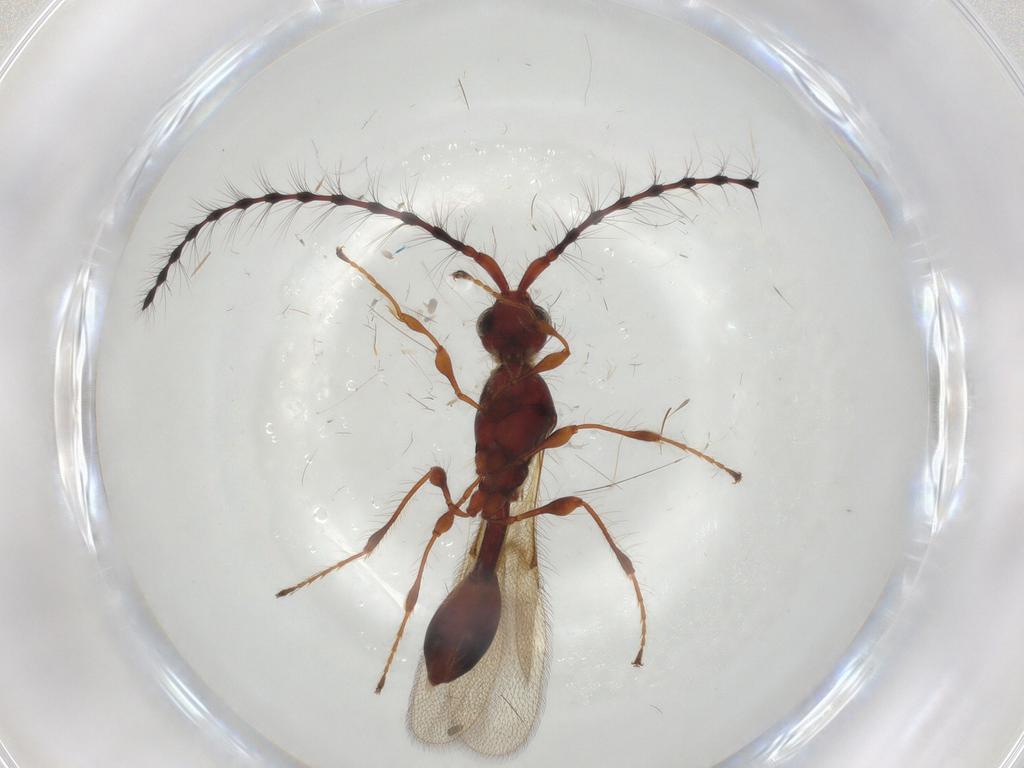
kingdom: Animalia
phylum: Arthropoda
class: Insecta
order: Hymenoptera
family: Diapriidae
